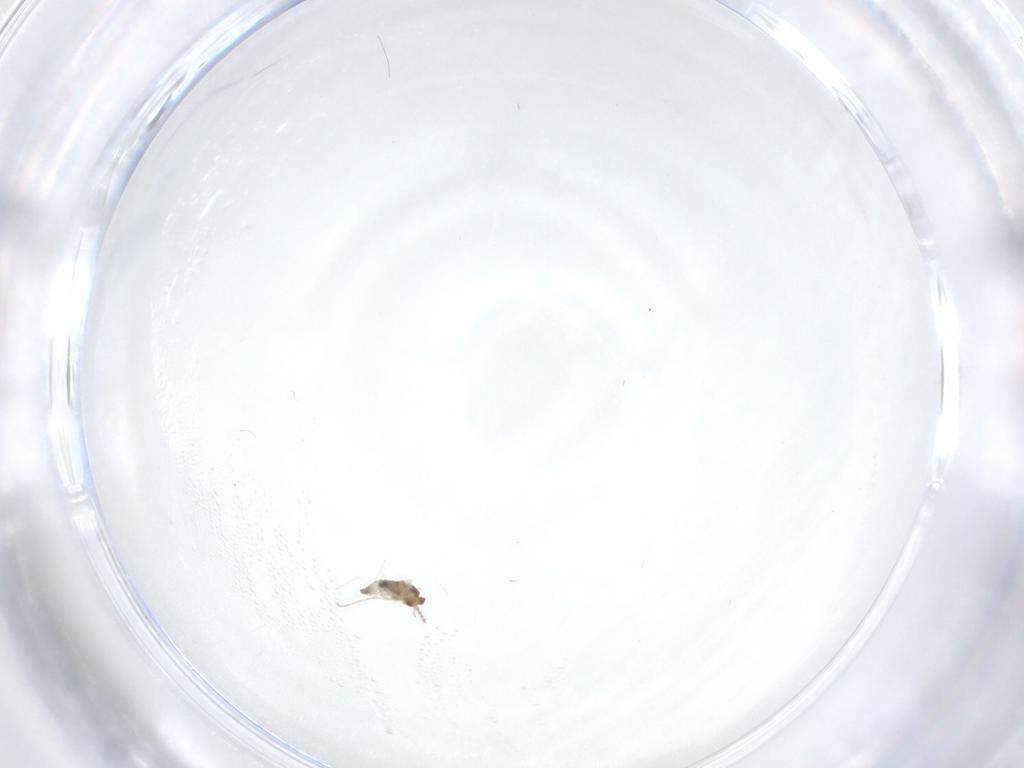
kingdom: Animalia
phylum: Arthropoda
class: Insecta
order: Diptera
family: Cecidomyiidae
